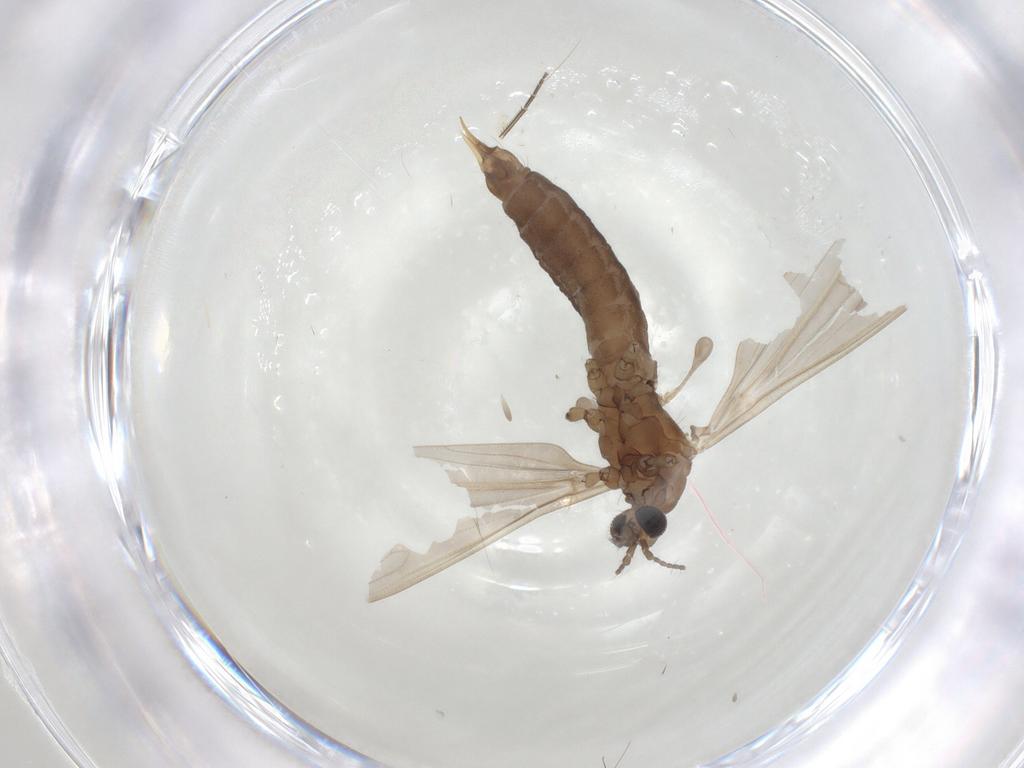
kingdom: Animalia
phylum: Arthropoda
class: Insecta
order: Diptera
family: Limoniidae
